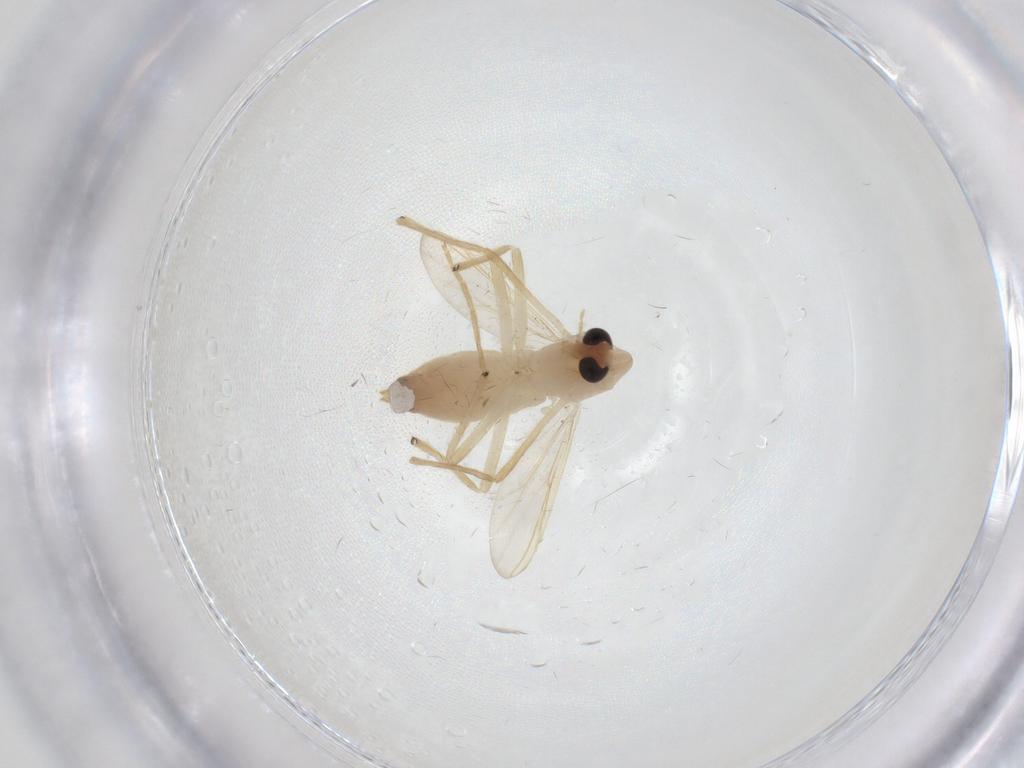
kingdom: Animalia
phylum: Arthropoda
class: Insecta
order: Diptera
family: Chironomidae
